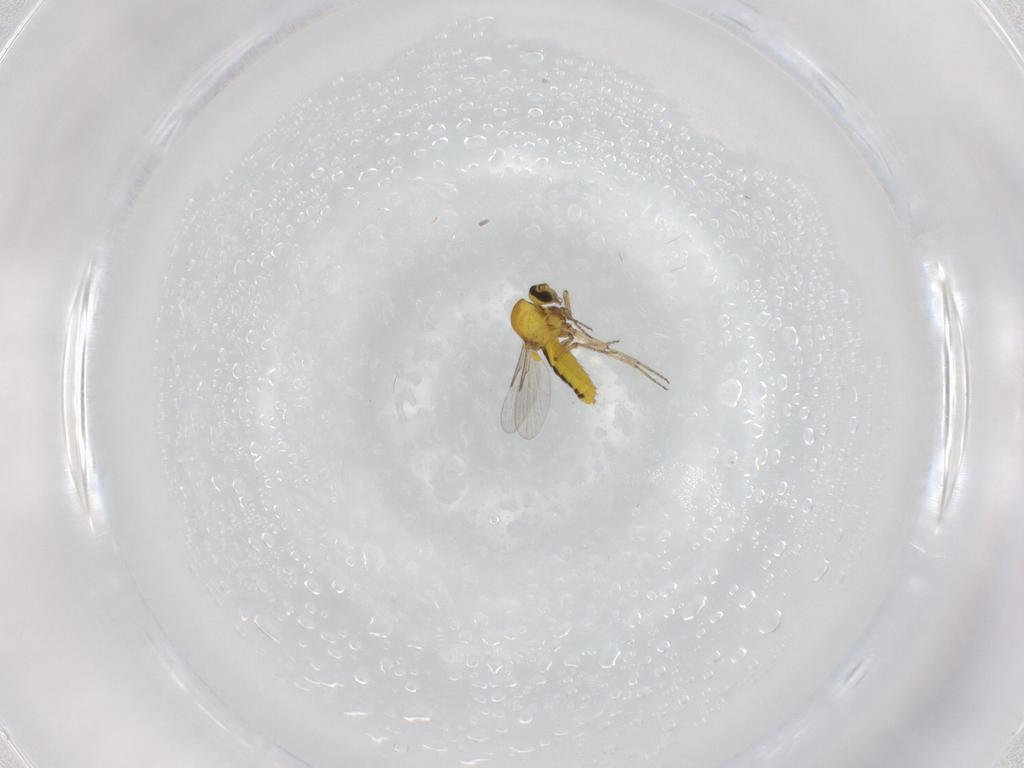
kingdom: Animalia
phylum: Arthropoda
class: Insecta
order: Diptera
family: Ceratopogonidae
